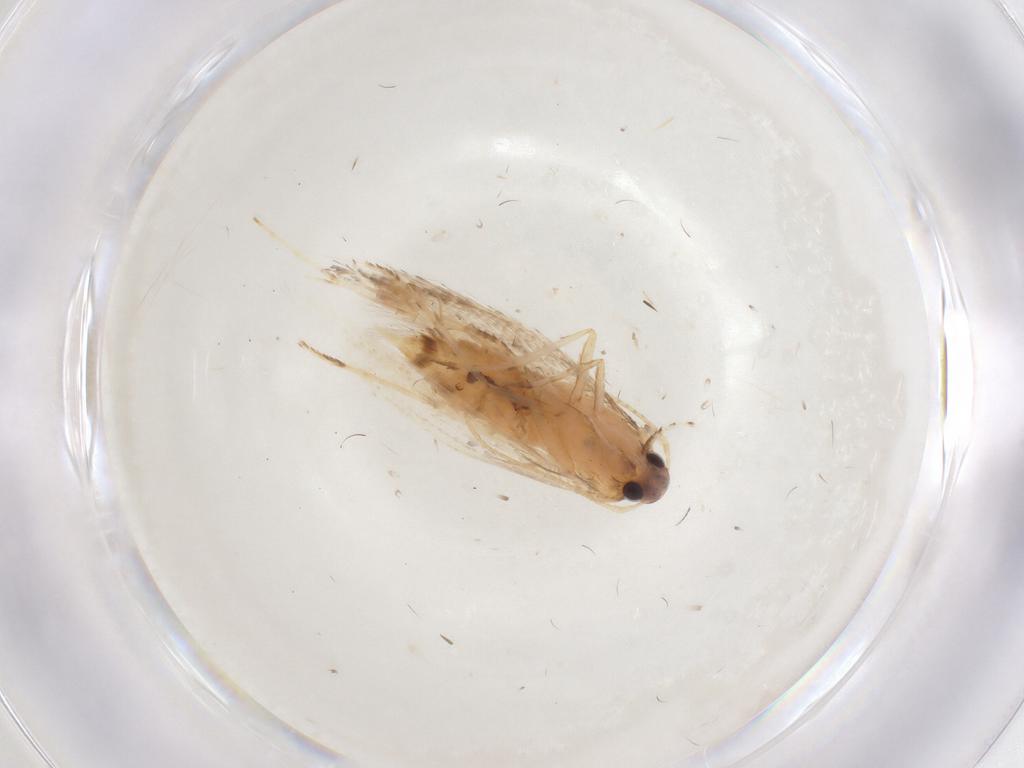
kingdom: Animalia
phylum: Arthropoda
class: Insecta
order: Lepidoptera
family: Gelechiidae
